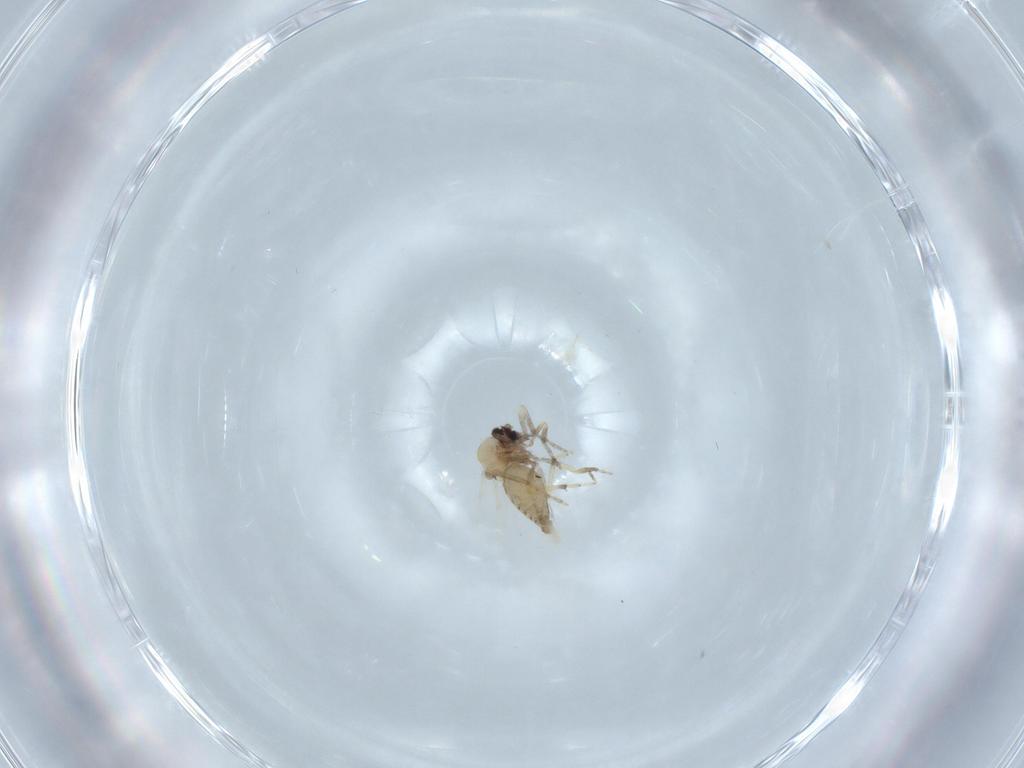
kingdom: Animalia
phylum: Arthropoda
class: Insecta
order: Diptera
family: Ceratopogonidae
